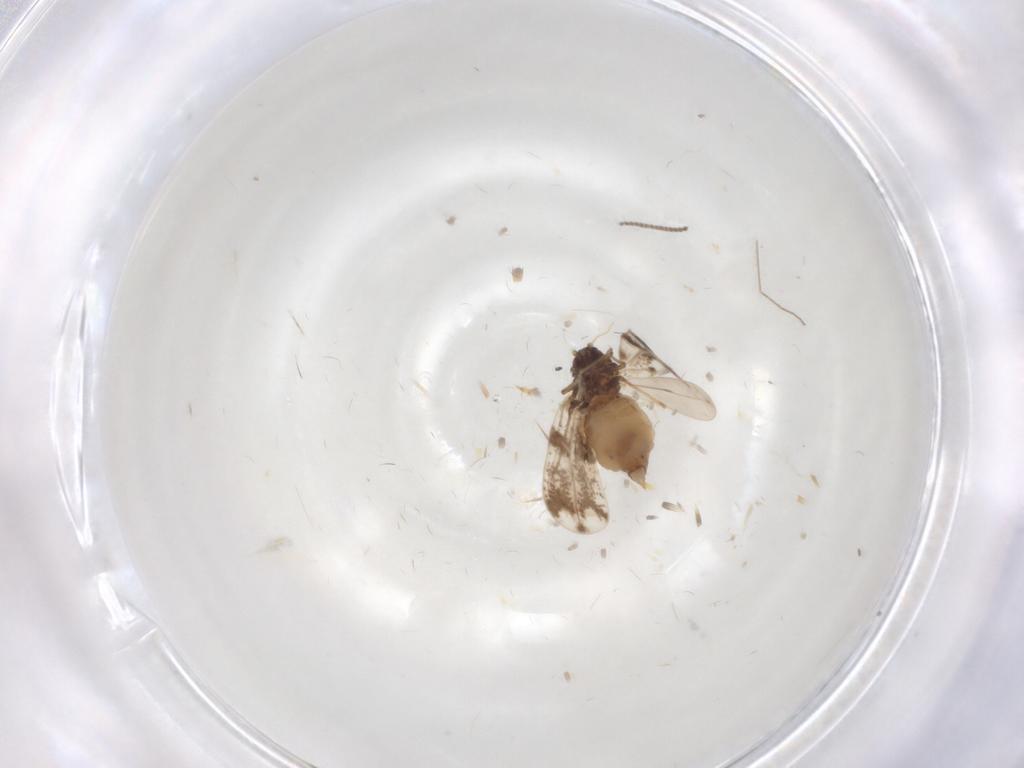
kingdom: Animalia
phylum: Arthropoda
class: Insecta
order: Hemiptera
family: Aleyrodidae
